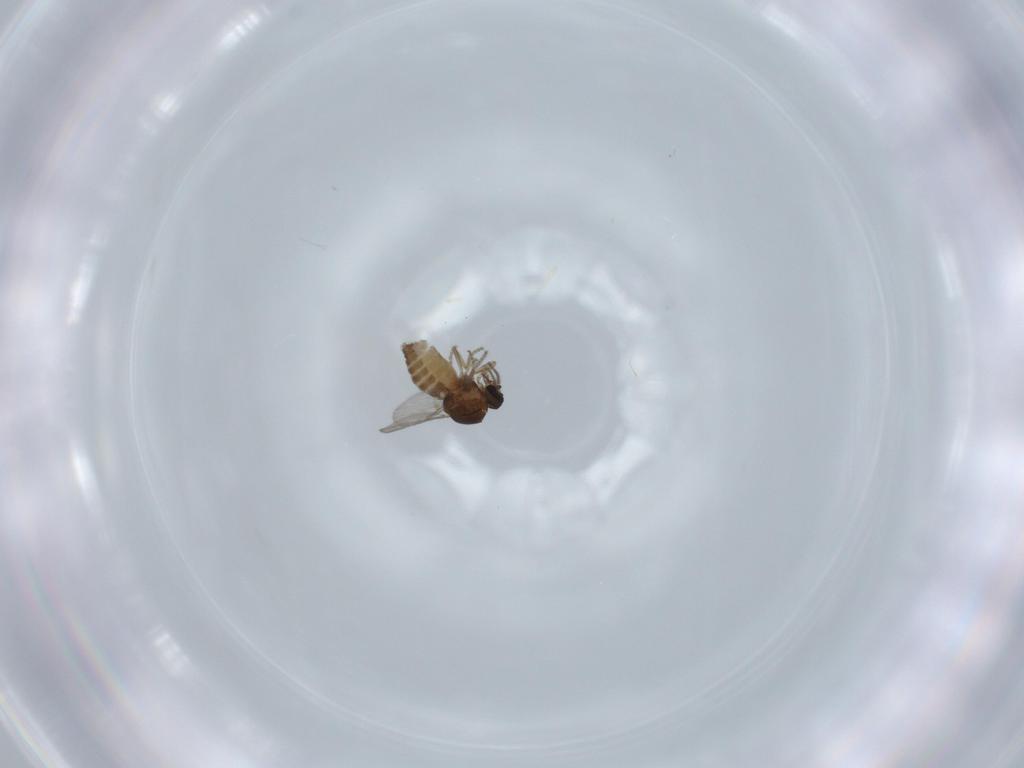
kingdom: Animalia
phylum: Arthropoda
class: Insecta
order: Diptera
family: Ceratopogonidae
